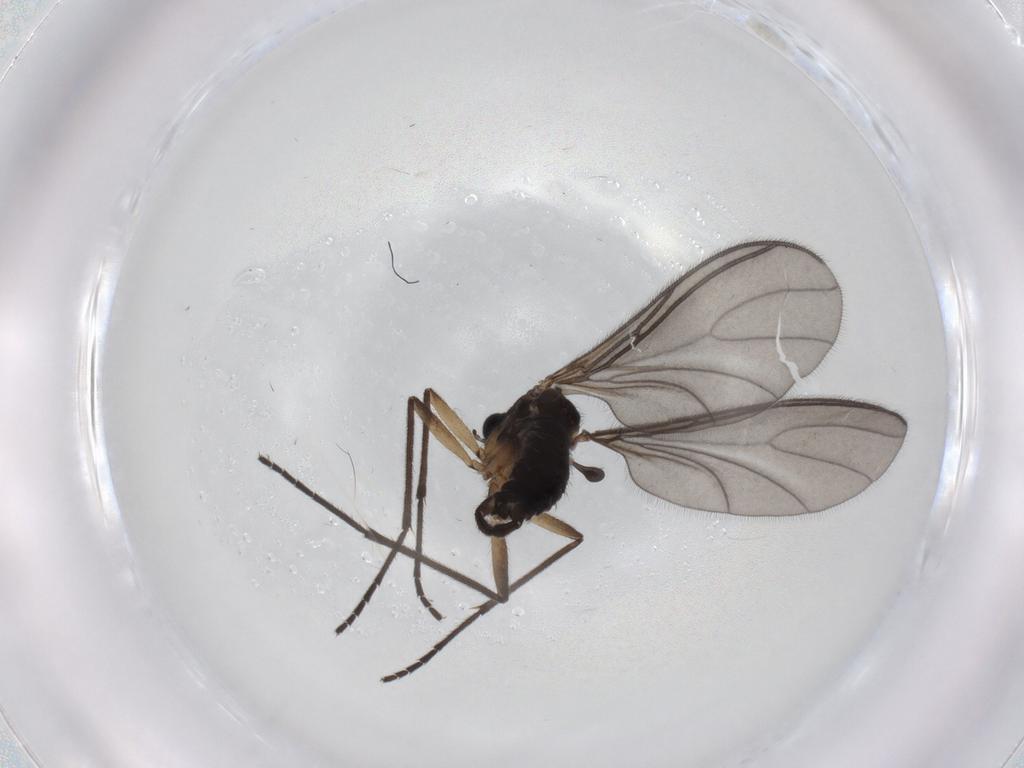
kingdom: Animalia
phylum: Arthropoda
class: Insecta
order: Diptera
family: Sciaridae
